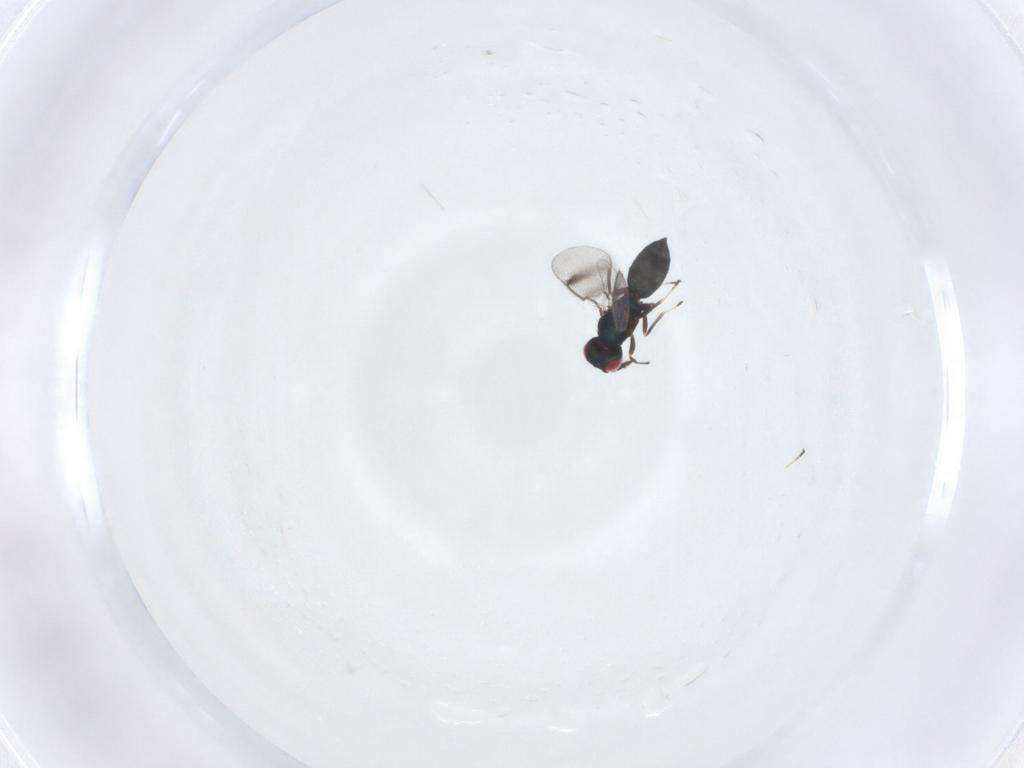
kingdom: Animalia
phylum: Arthropoda
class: Insecta
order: Hymenoptera
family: Eulophidae
